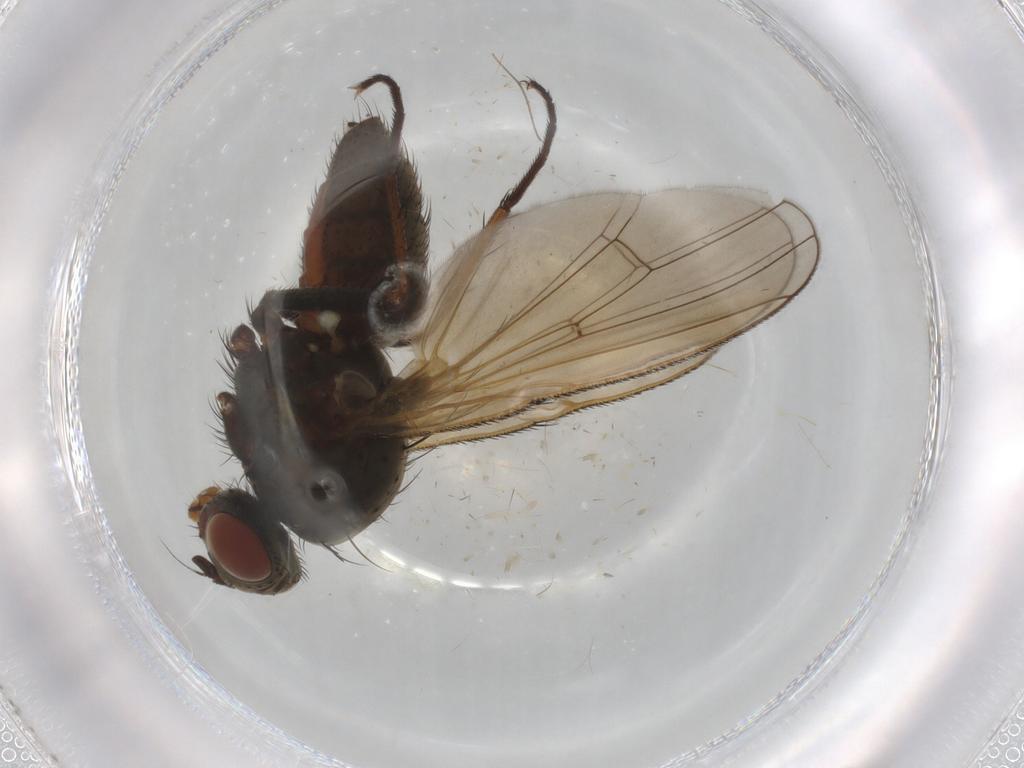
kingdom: Animalia
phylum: Arthropoda
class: Insecta
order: Diptera
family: Anthomyiidae
